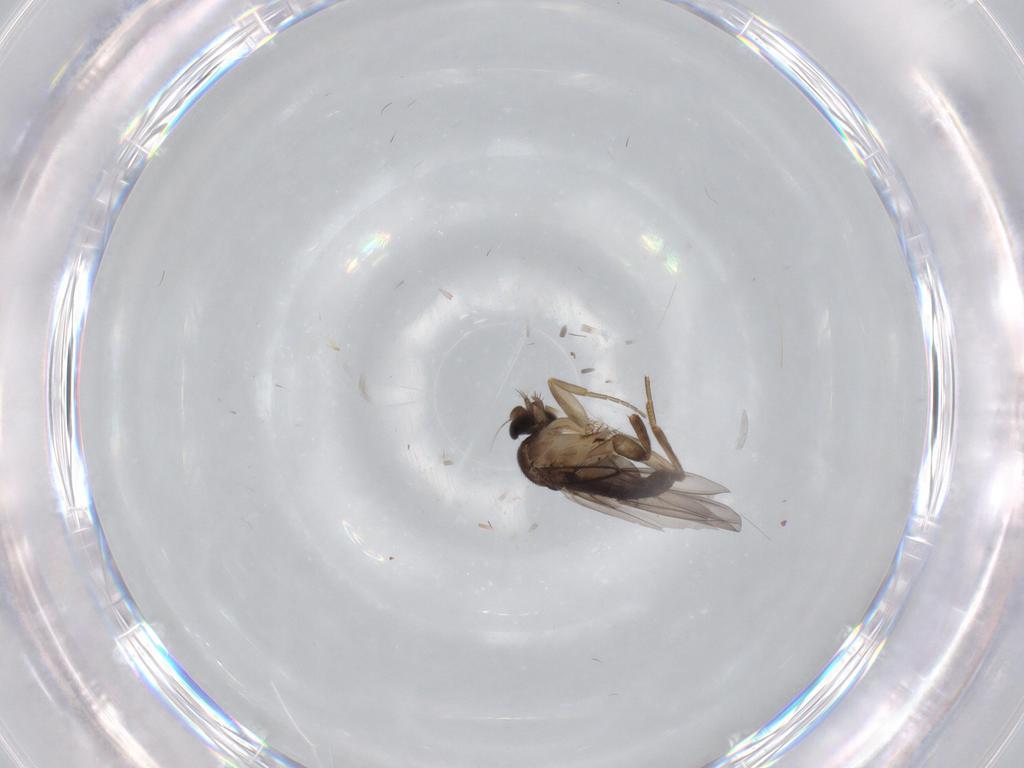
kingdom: Animalia
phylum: Arthropoda
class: Insecta
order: Diptera
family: Phoridae
